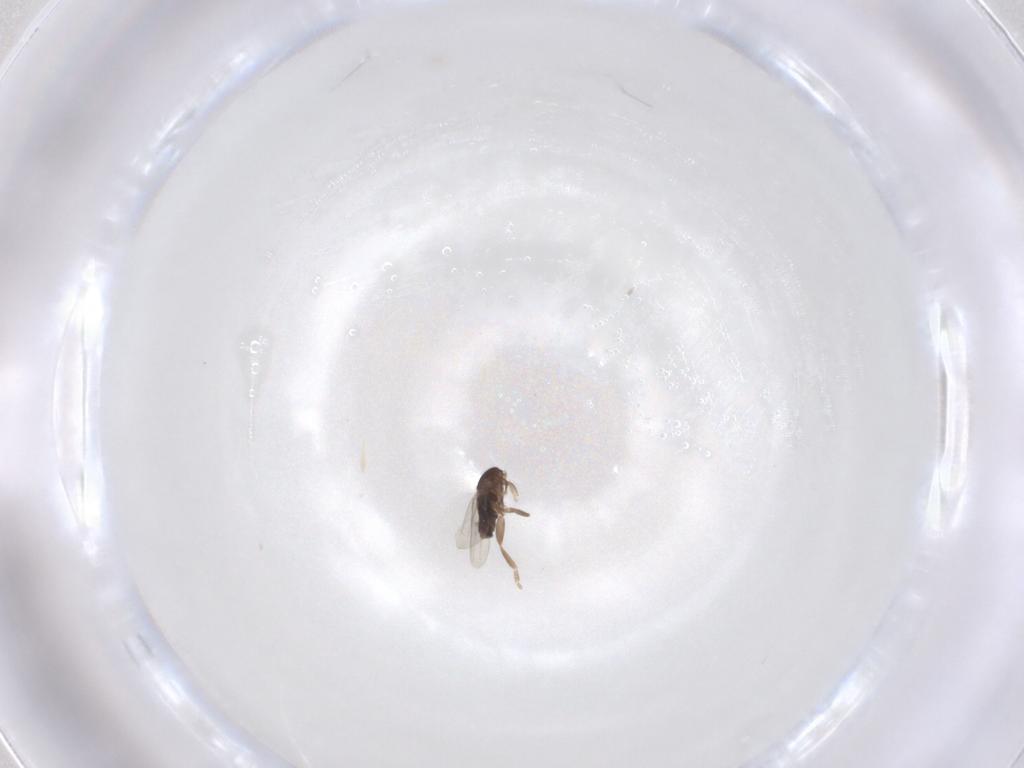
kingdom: Animalia
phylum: Arthropoda
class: Insecta
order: Diptera
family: Phoridae
